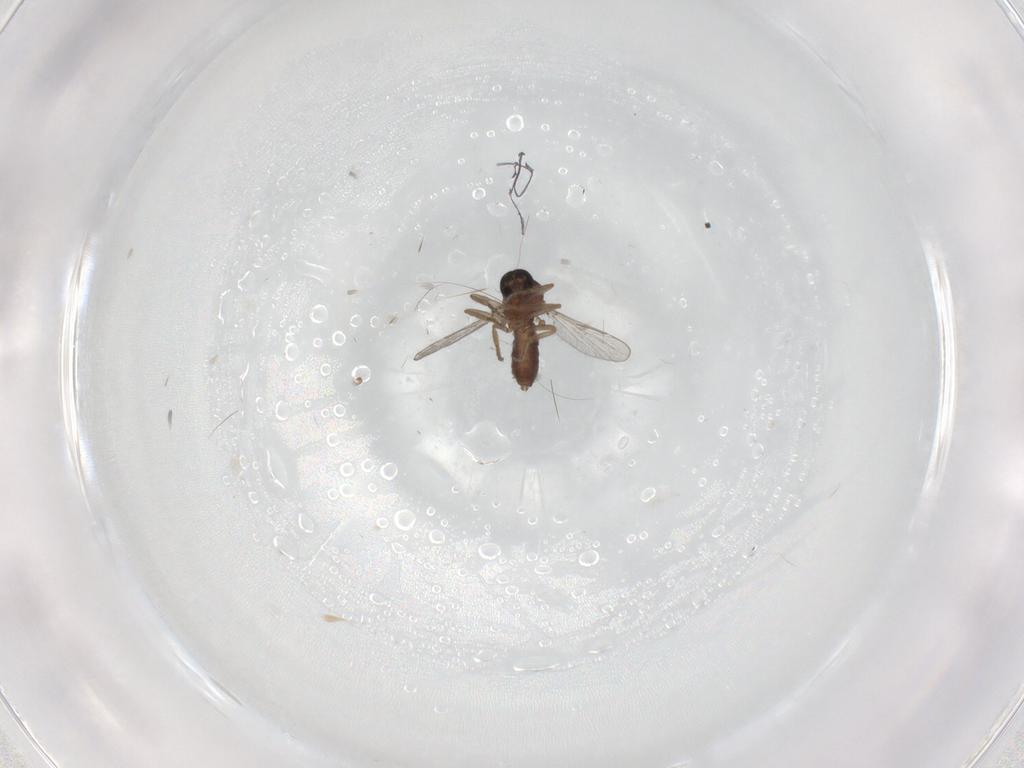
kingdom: Animalia
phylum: Arthropoda
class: Insecta
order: Diptera
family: Ceratopogonidae
